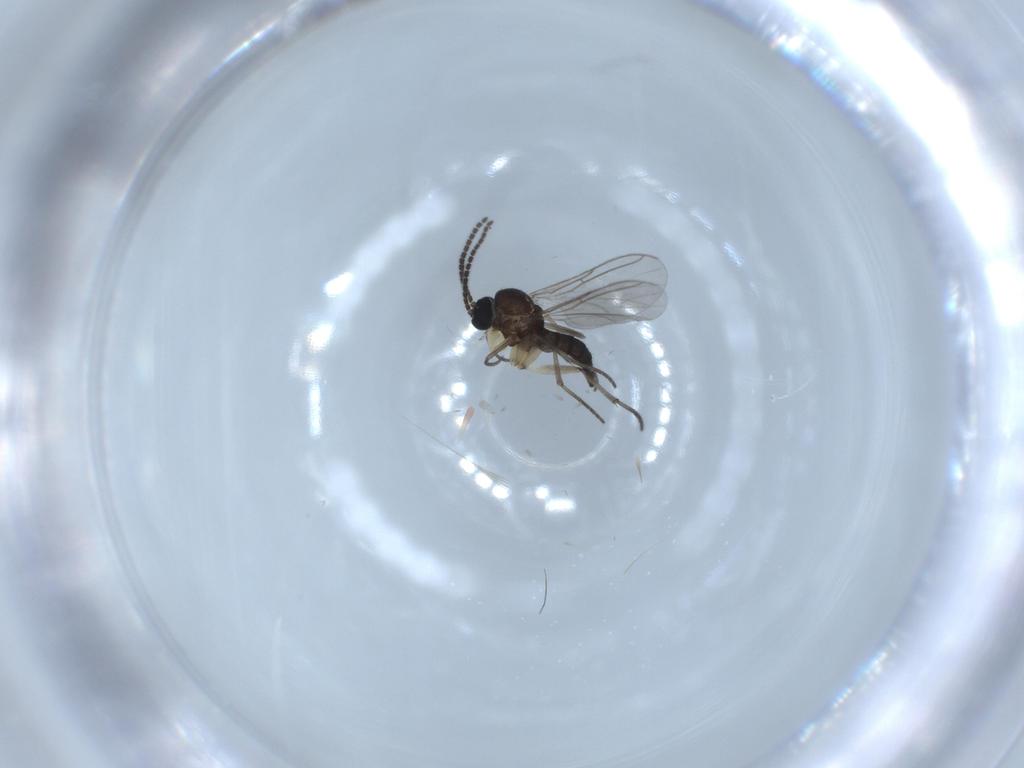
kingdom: Animalia
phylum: Arthropoda
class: Insecta
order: Diptera
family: Sciaridae
